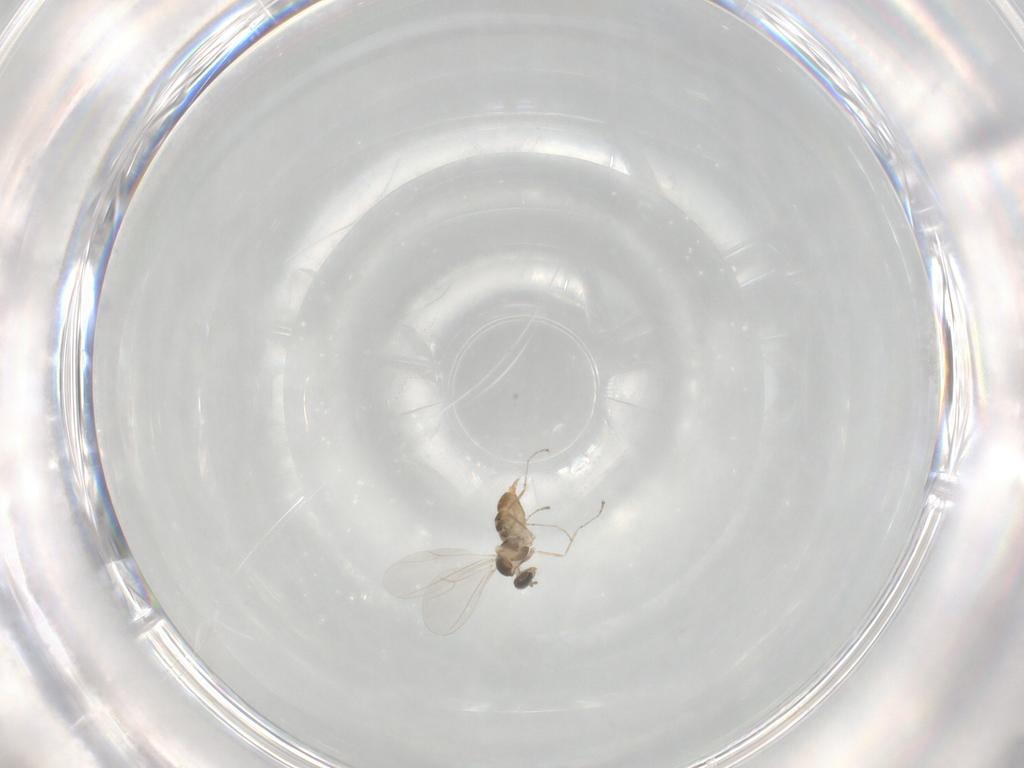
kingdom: Animalia
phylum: Arthropoda
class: Insecta
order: Diptera
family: Cecidomyiidae
